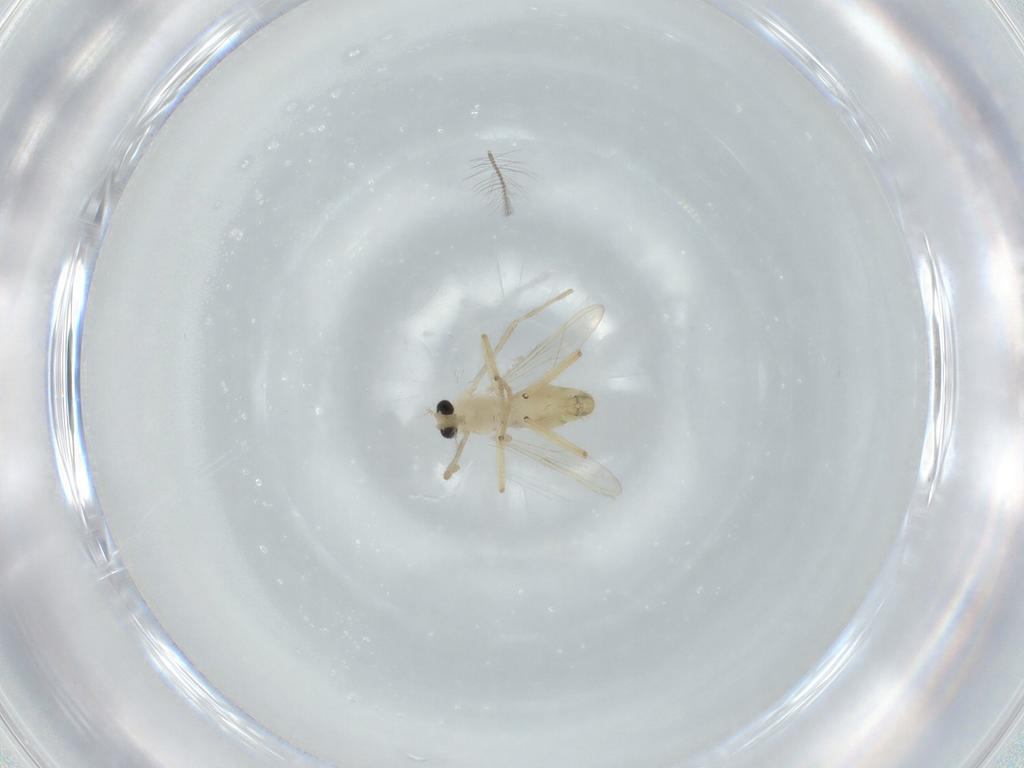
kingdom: Animalia
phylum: Arthropoda
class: Insecta
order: Diptera
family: Chironomidae
